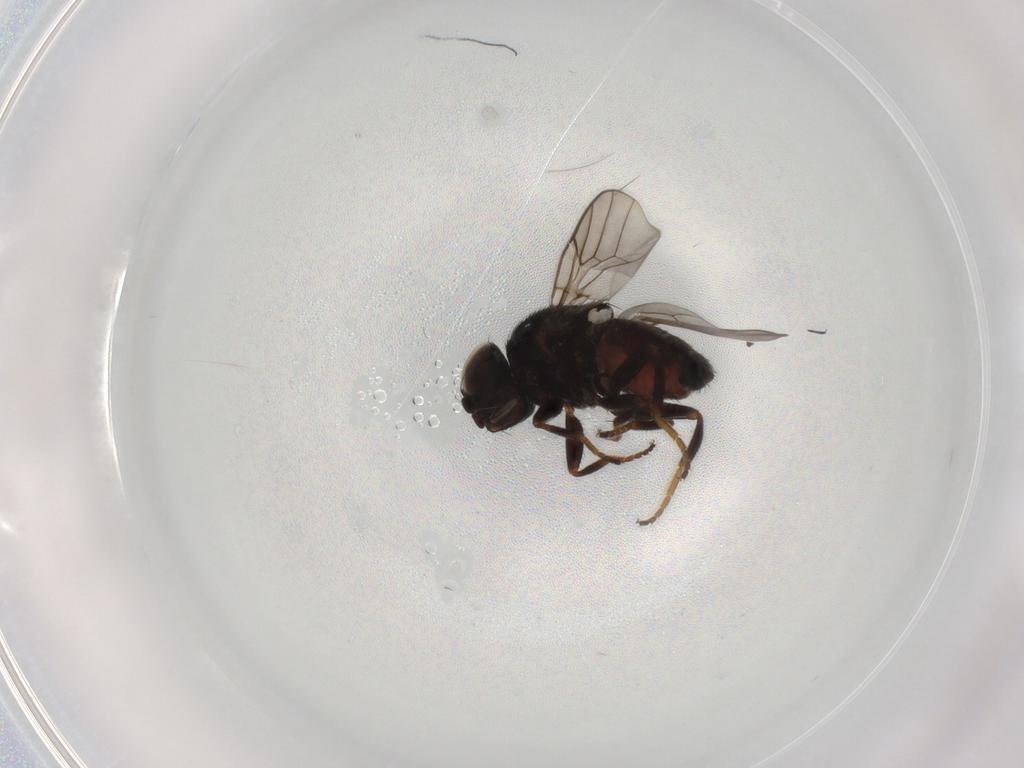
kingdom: Animalia
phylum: Arthropoda
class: Insecta
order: Diptera
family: Chloropidae
